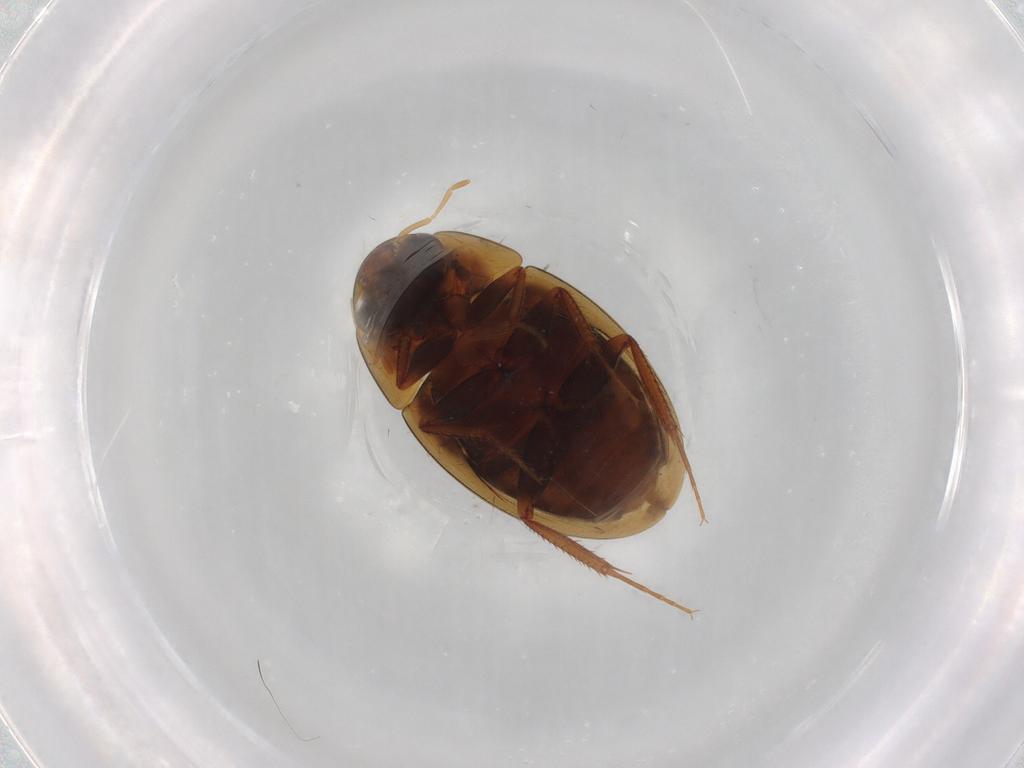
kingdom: Animalia
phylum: Arthropoda
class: Insecta
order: Coleoptera
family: Hydrophilidae
